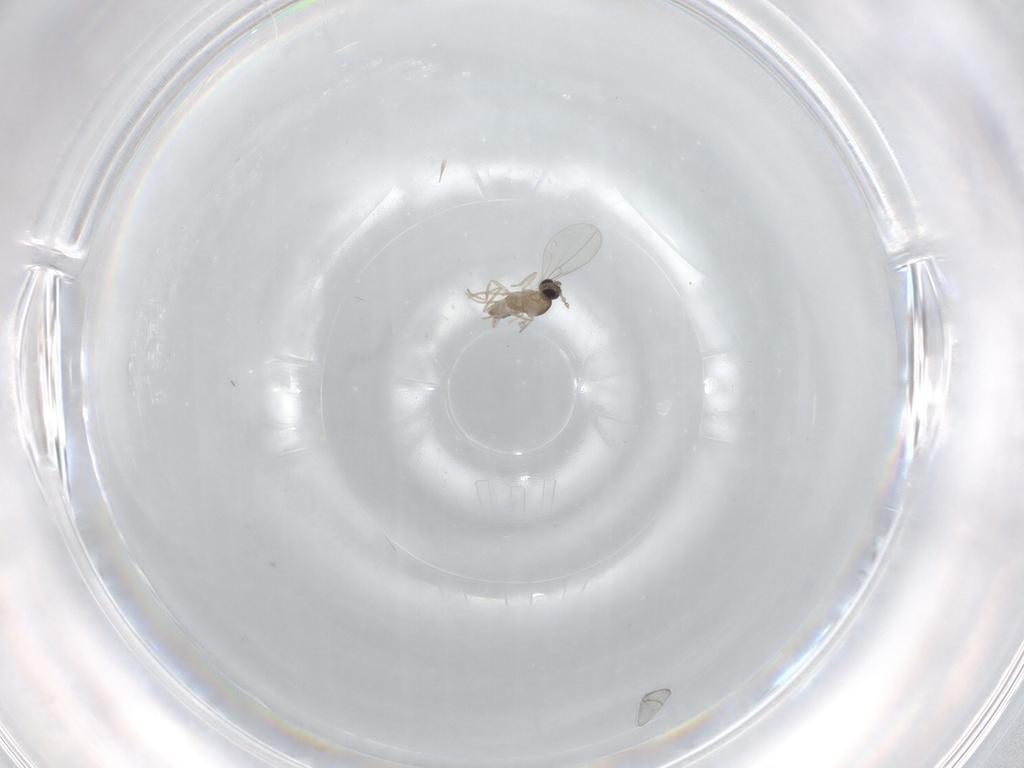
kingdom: Animalia
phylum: Arthropoda
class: Insecta
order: Diptera
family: Cecidomyiidae
